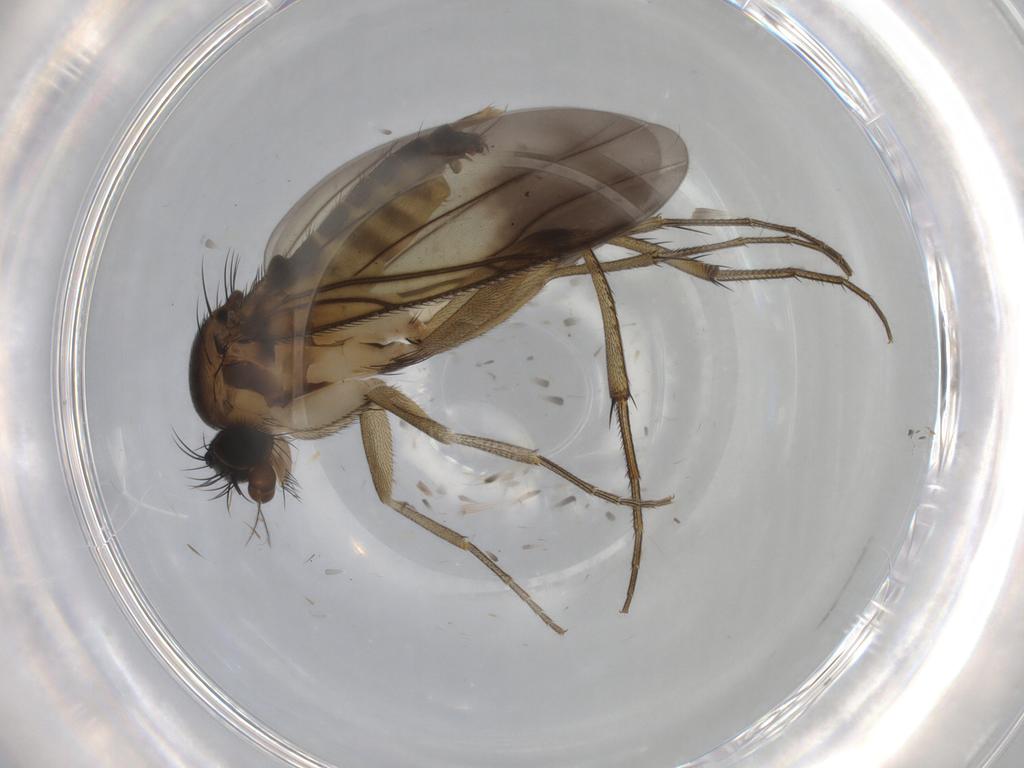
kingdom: Animalia
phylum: Arthropoda
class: Insecta
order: Diptera
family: Phoridae
